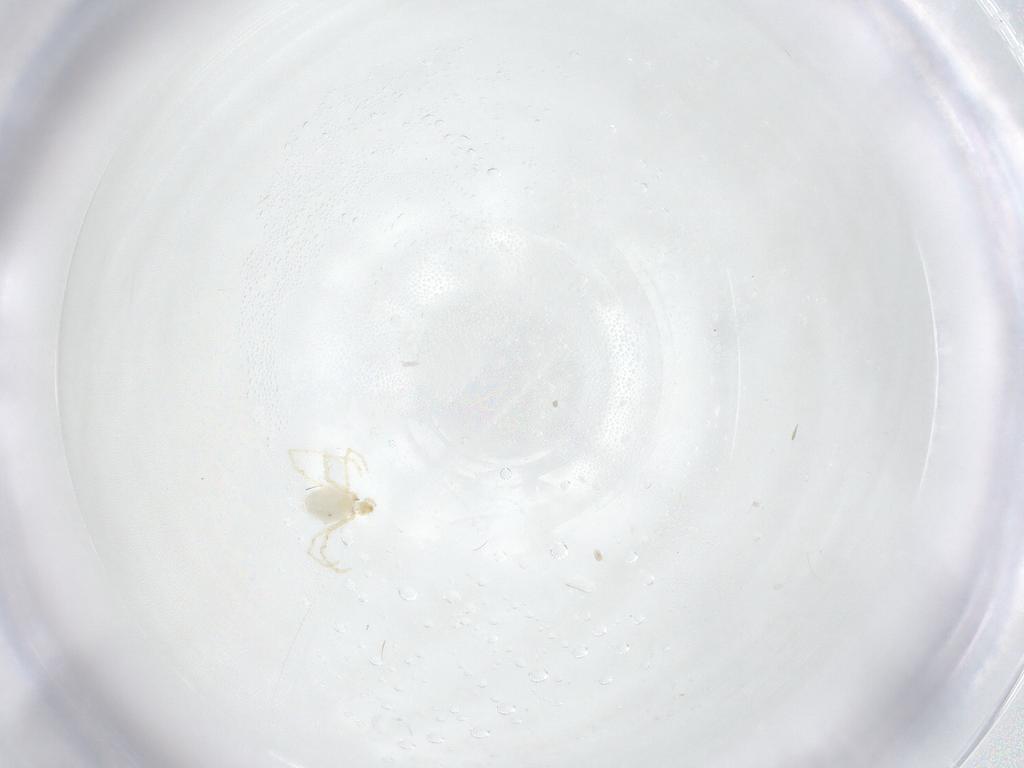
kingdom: Animalia
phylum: Arthropoda
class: Arachnida
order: Trombidiformes
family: Erythraeidae
